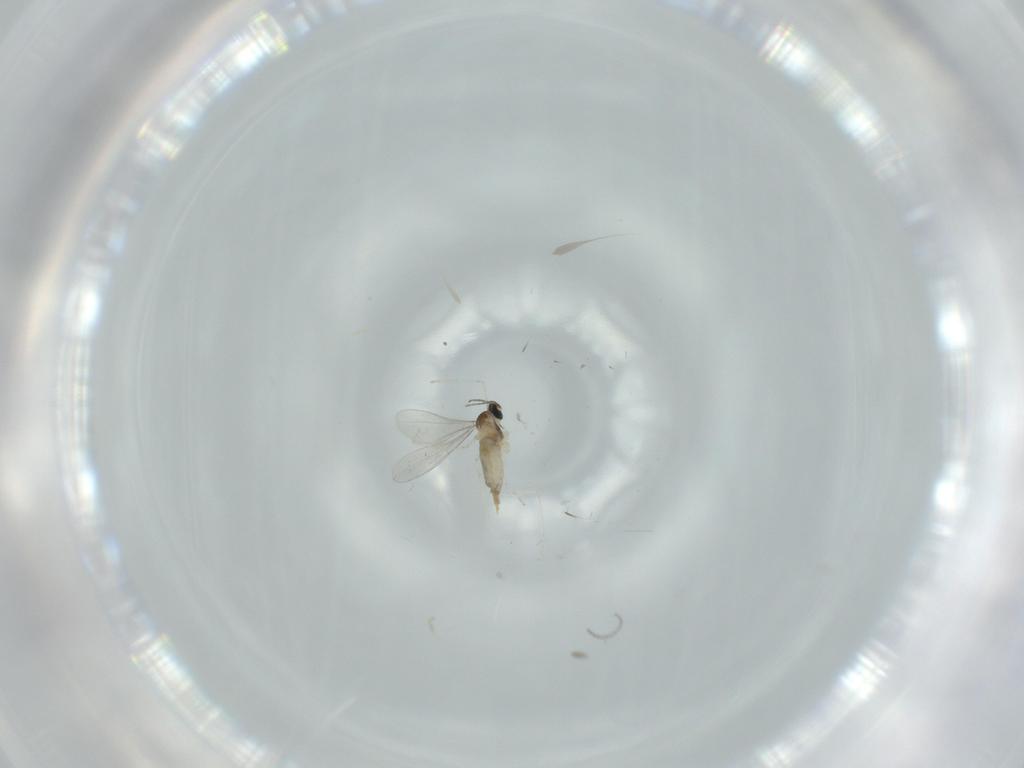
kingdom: Animalia
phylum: Arthropoda
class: Insecta
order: Diptera
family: Cecidomyiidae
